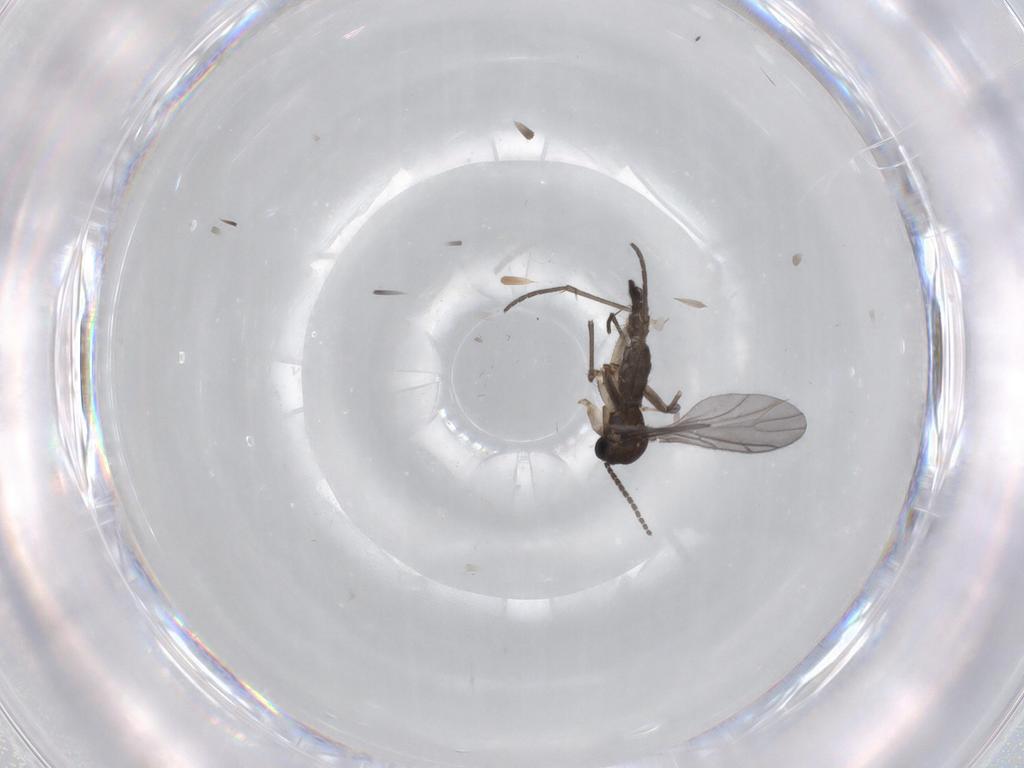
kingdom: Animalia
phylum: Arthropoda
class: Insecta
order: Diptera
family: Sciaridae
